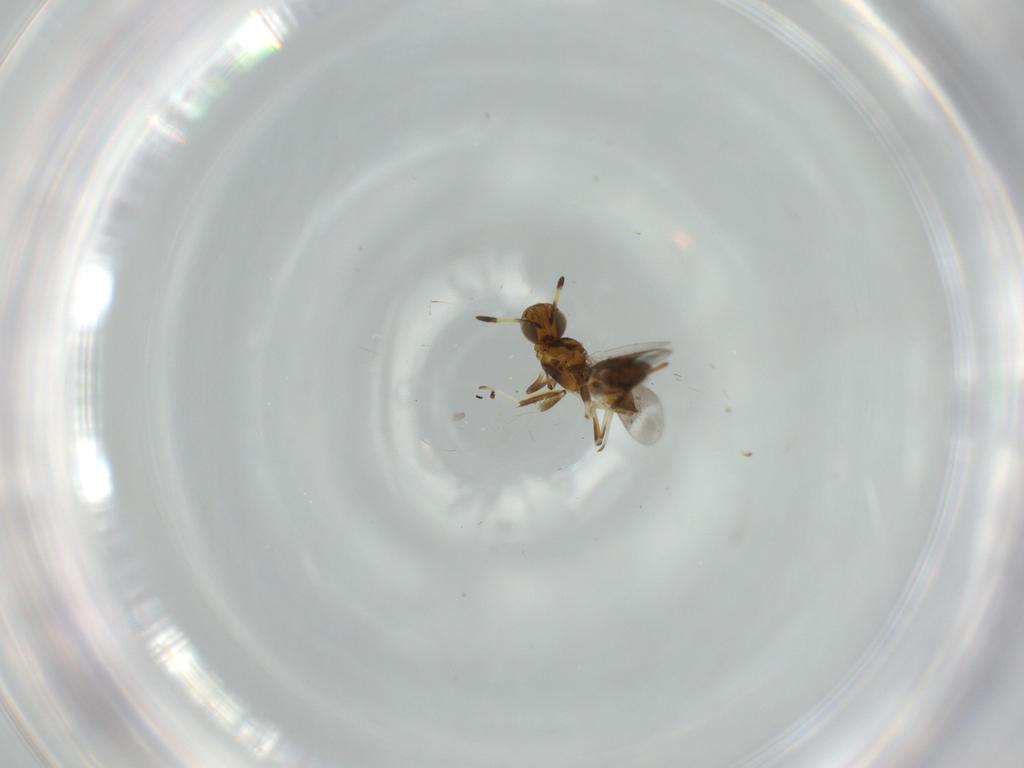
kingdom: Animalia
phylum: Arthropoda
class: Insecta
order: Hymenoptera
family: Eupelmidae
